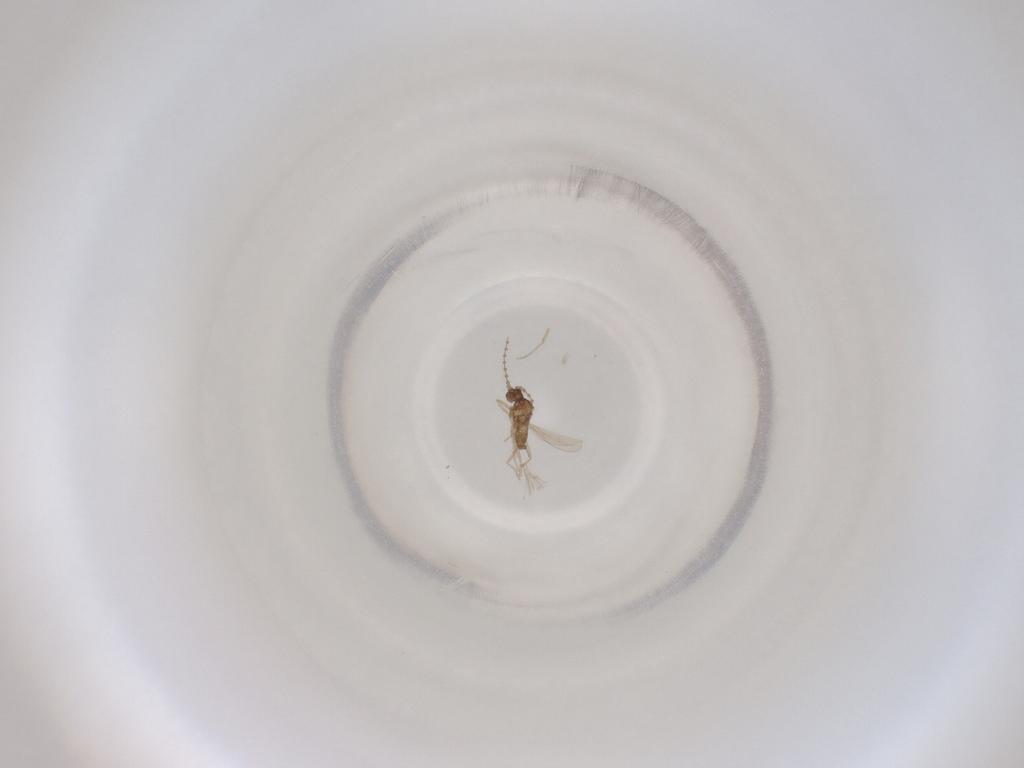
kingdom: Animalia
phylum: Arthropoda
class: Insecta
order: Diptera
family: Cecidomyiidae
